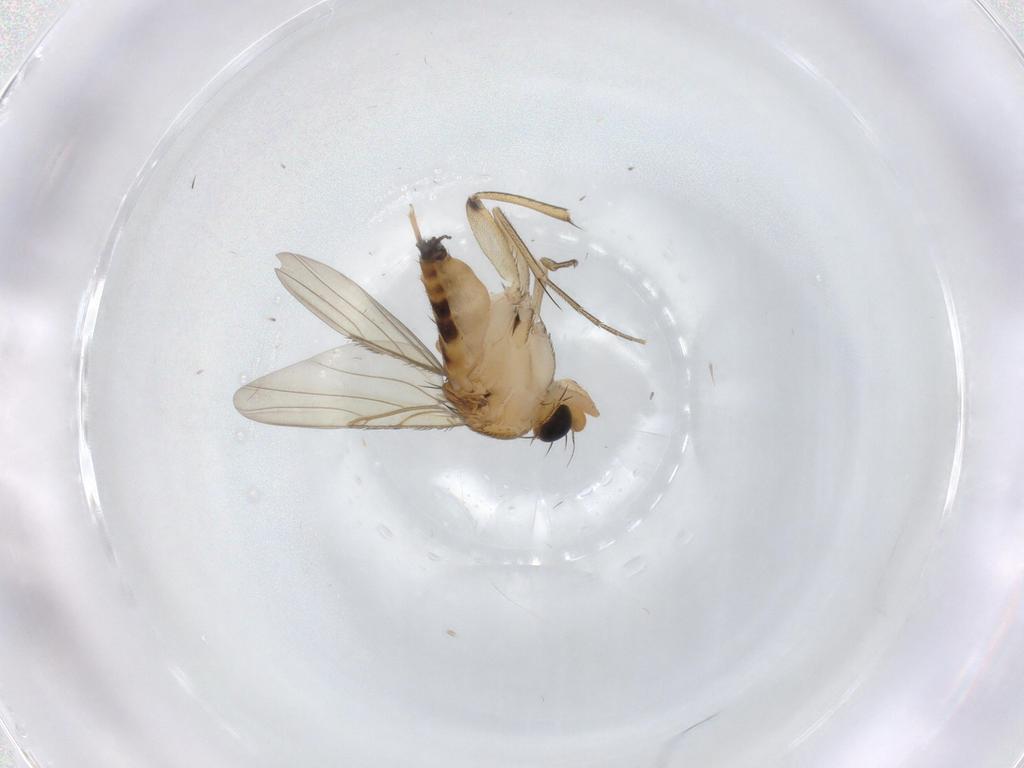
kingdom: Animalia
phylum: Arthropoda
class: Insecta
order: Diptera
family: Phoridae
